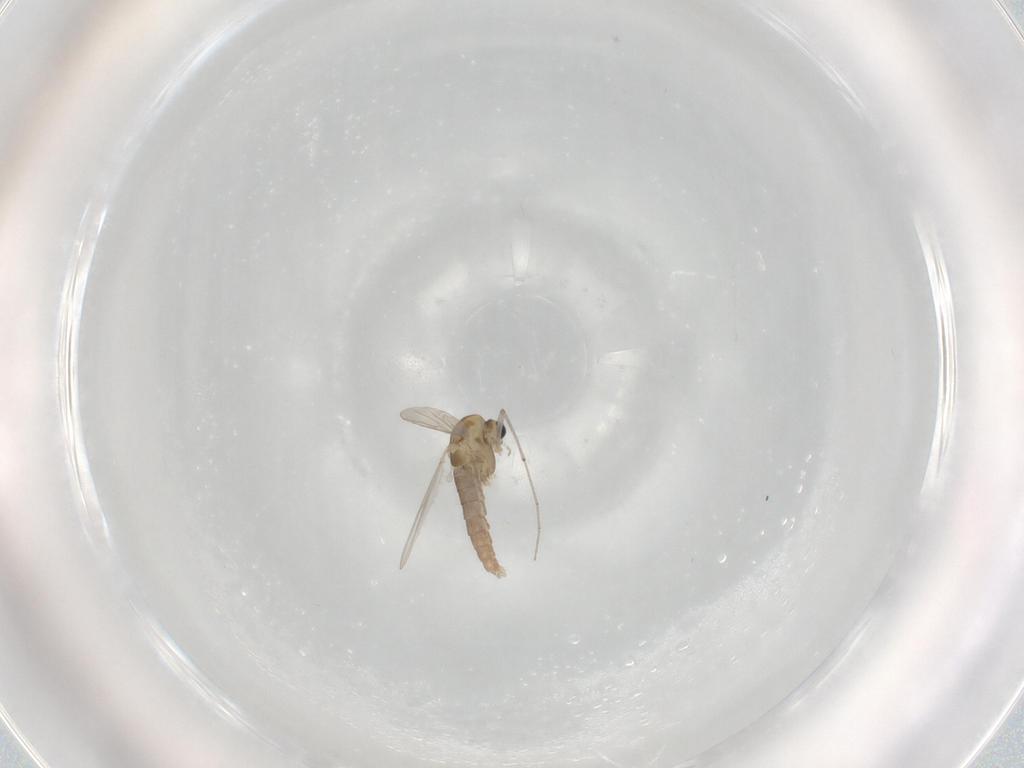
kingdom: Animalia
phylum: Arthropoda
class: Insecta
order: Diptera
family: Chironomidae
